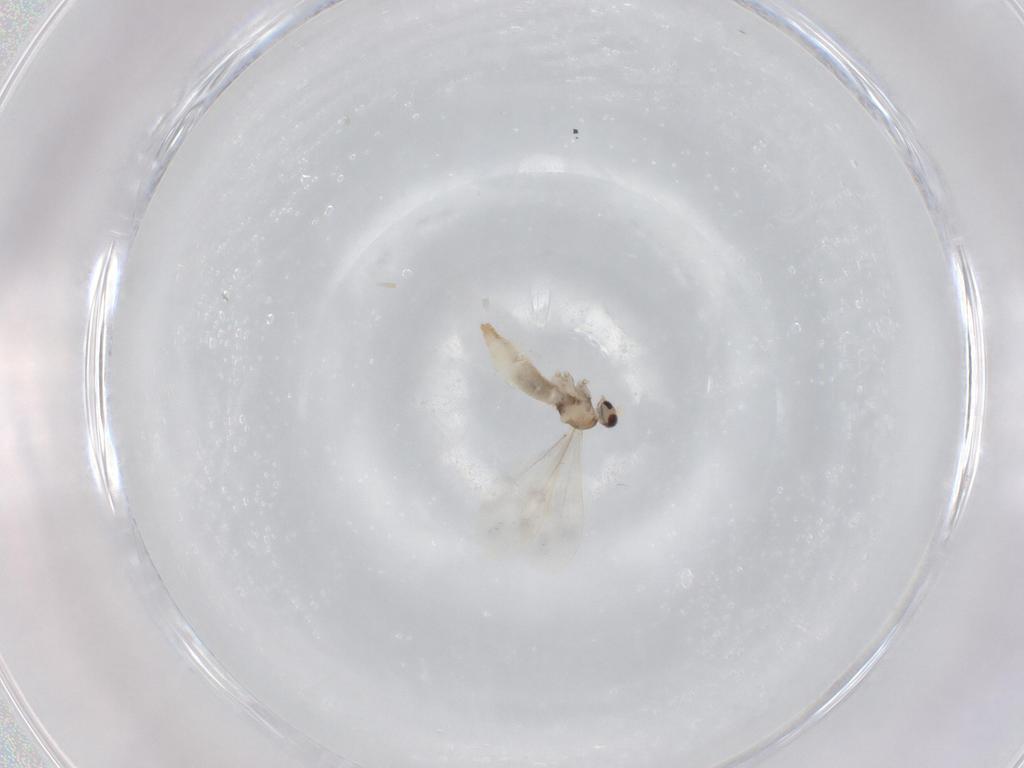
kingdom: Animalia
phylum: Arthropoda
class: Insecta
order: Diptera
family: Cecidomyiidae
